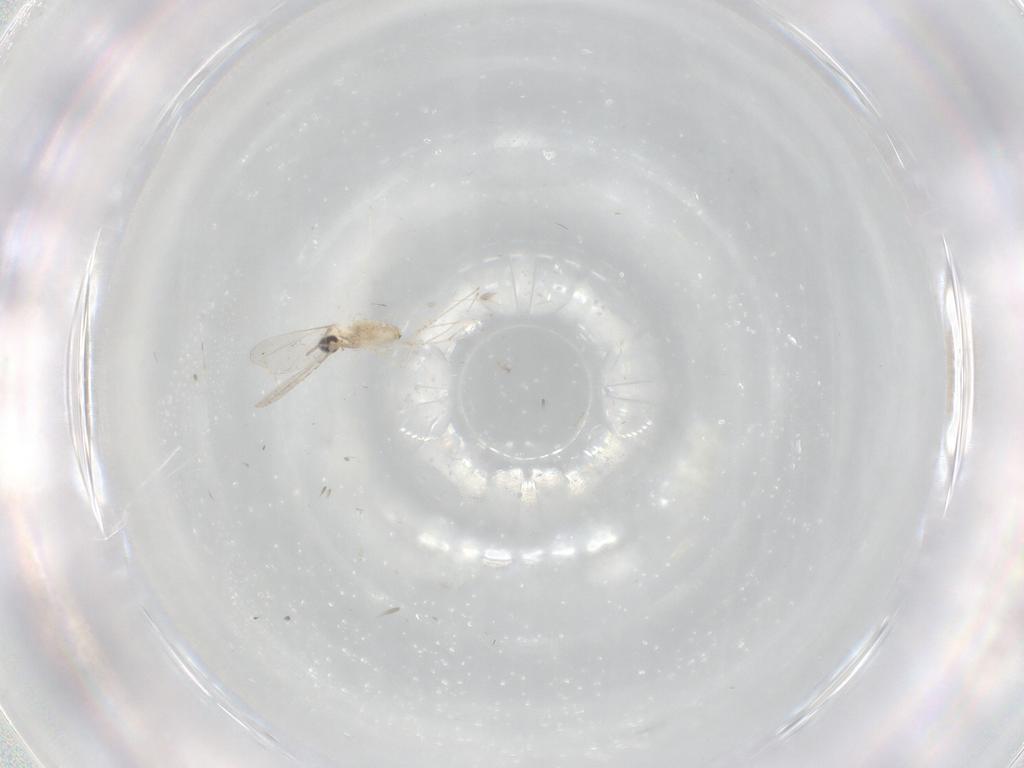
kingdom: Animalia
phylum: Arthropoda
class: Insecta
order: Diptera
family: Cecidomyiidae
